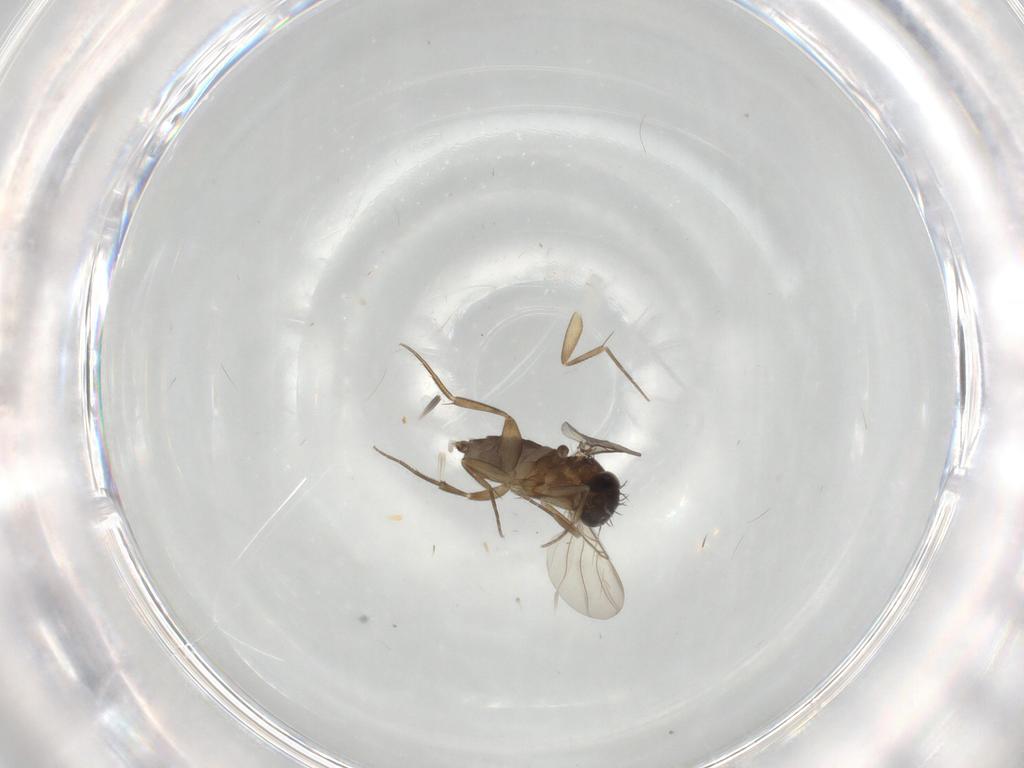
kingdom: Animalia
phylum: Arthropoda
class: Insecta
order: Diptera
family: Phoridae
